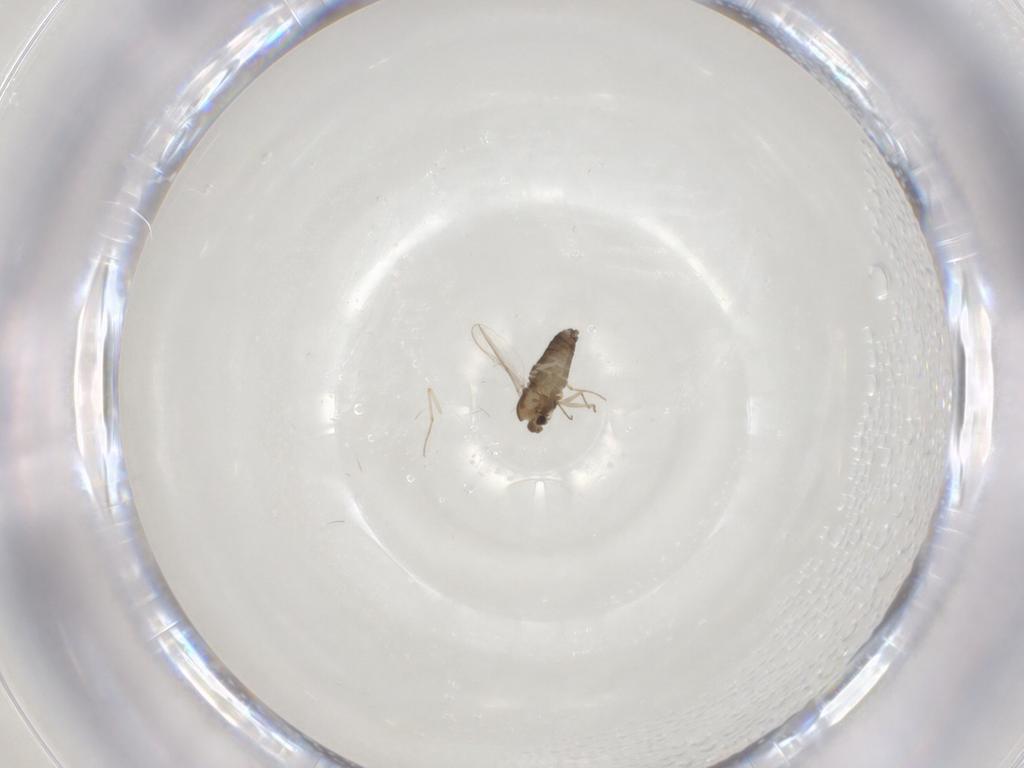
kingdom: Animalia
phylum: Arthropoda
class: Insecta
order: Diptera
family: Chironomidae
